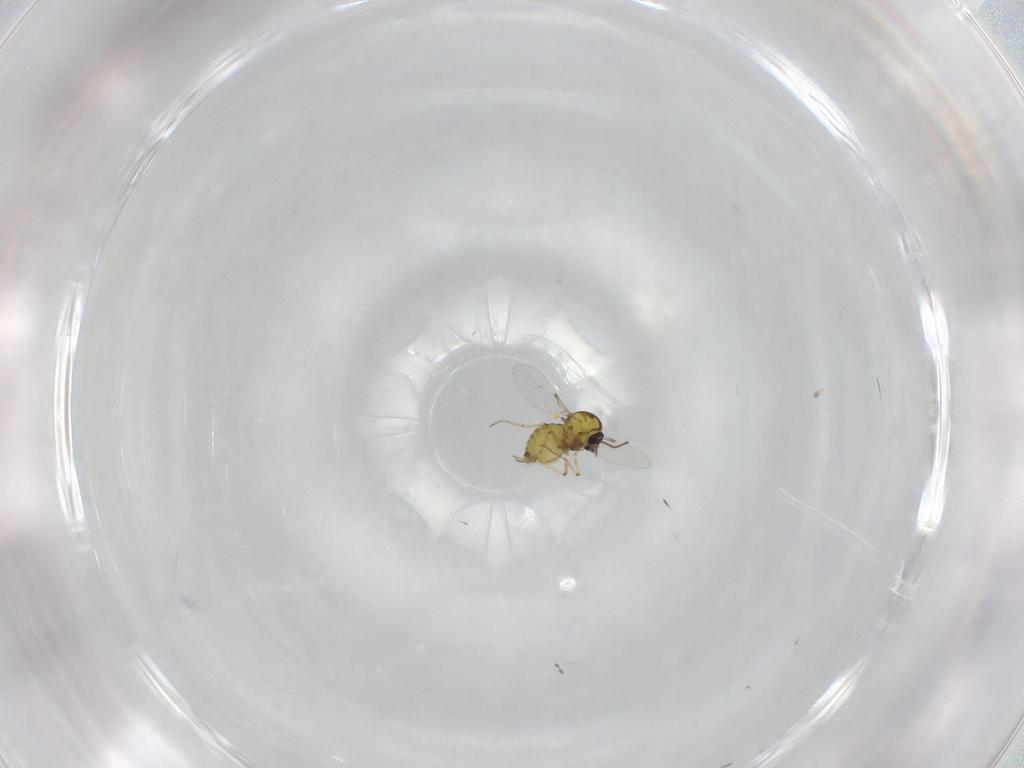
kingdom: Animalia
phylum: Arthropoda
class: Insecta
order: Diptera
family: Ceratopogonidae
